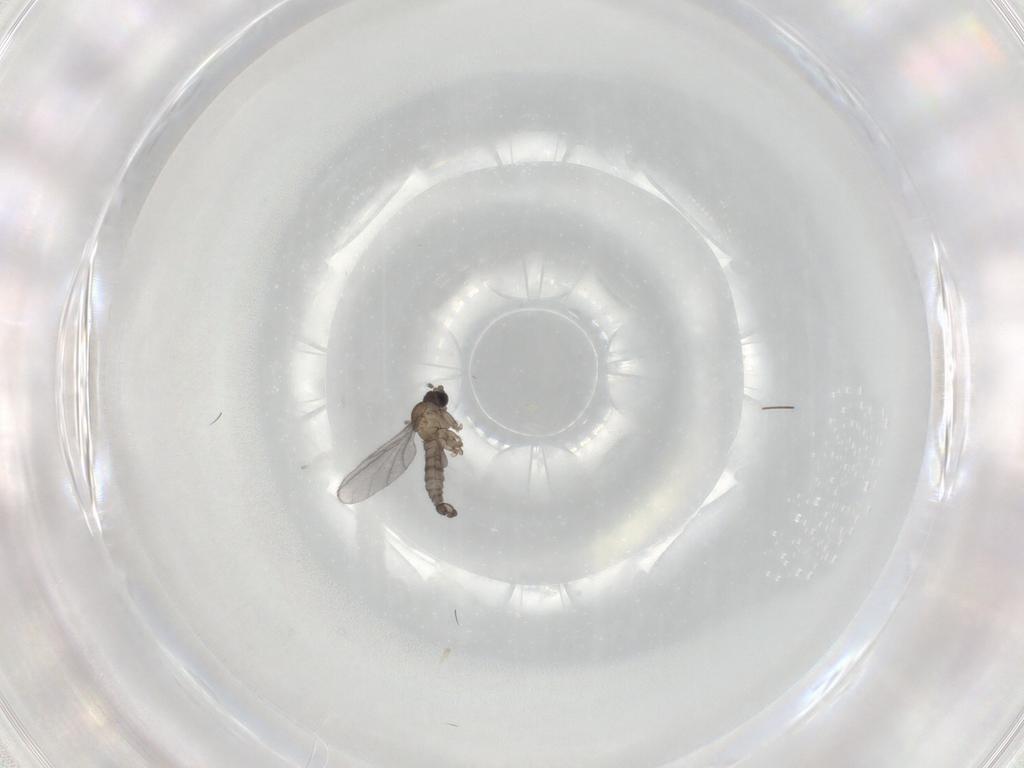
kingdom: Animalia
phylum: Arthropoda
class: Insecta
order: Diptera
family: Sciaridae
